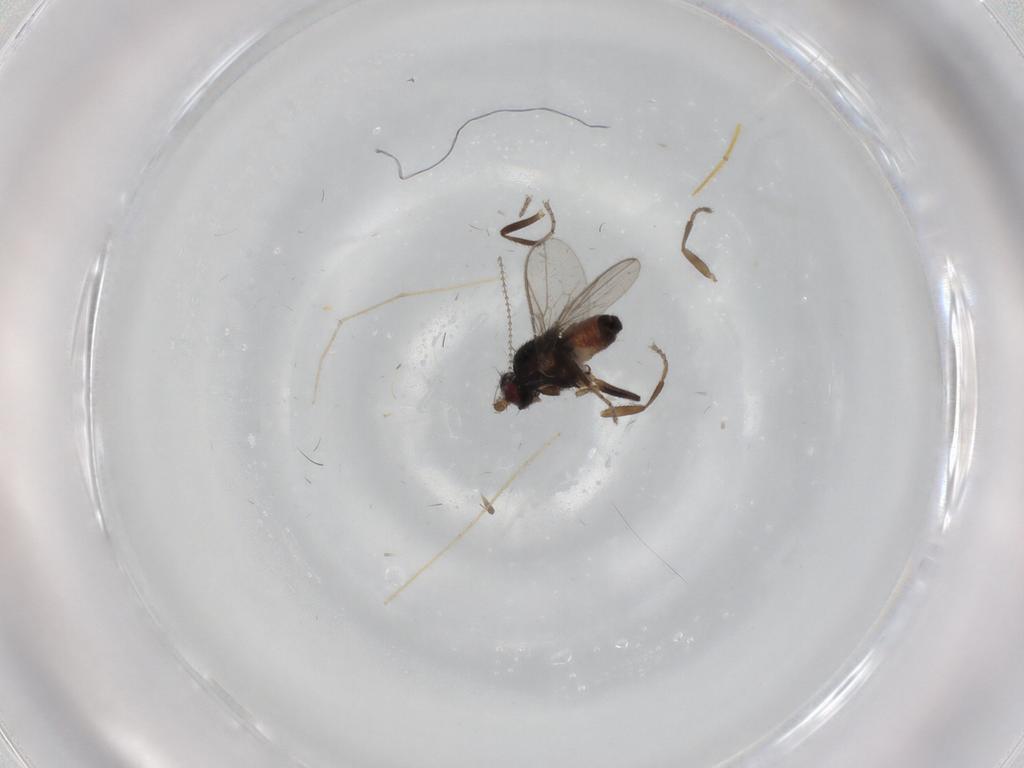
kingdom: Animalia
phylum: Arthropoda
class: Insecta
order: Diptera
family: Sphaeroceridae
